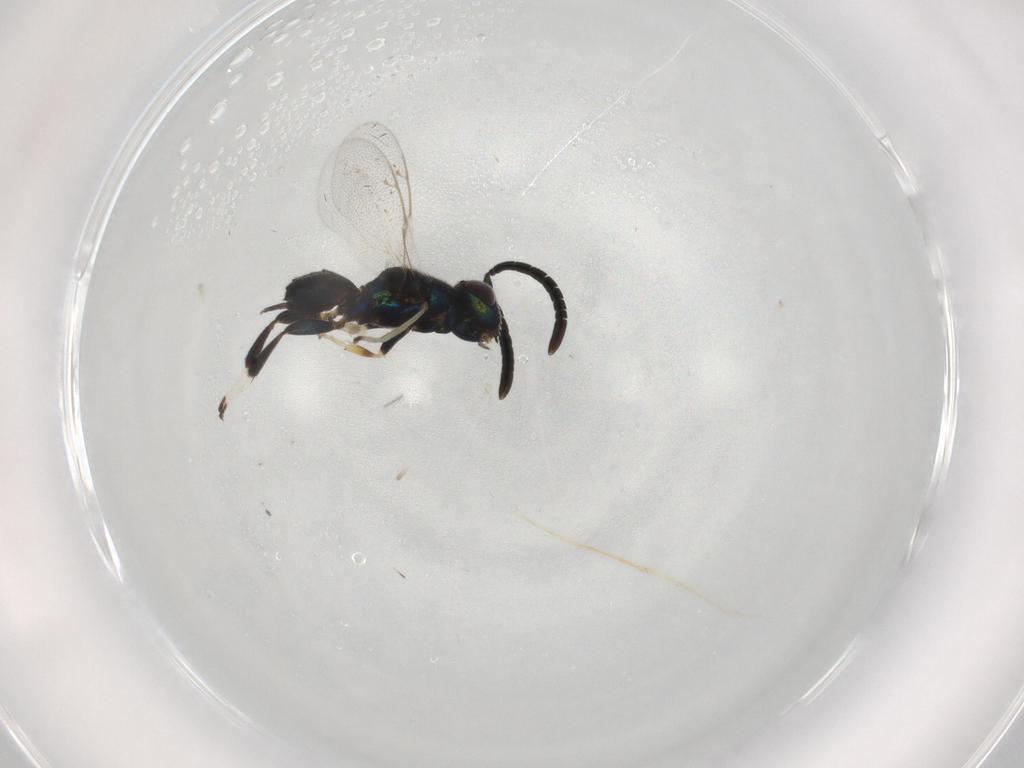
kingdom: Animalia
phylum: Arthropoda
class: Insecta
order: Hymenoptera
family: Eupelmidae
